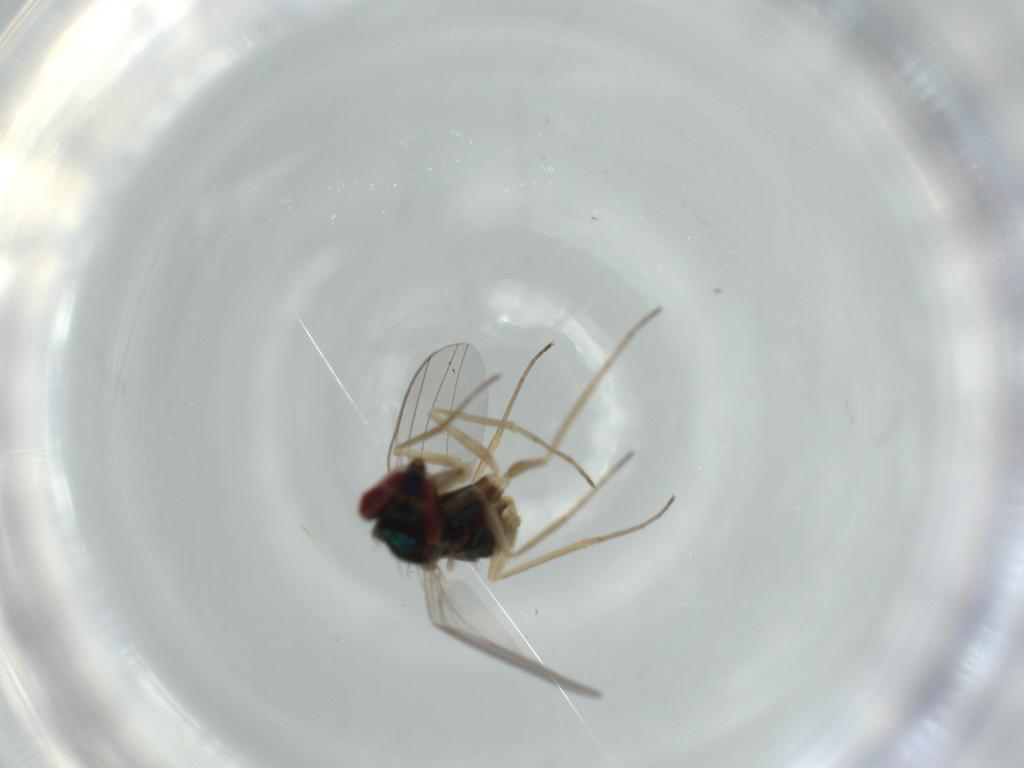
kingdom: Animalia
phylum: Arthropoda
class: Insecta
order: Diptera
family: Dolichopodidae
